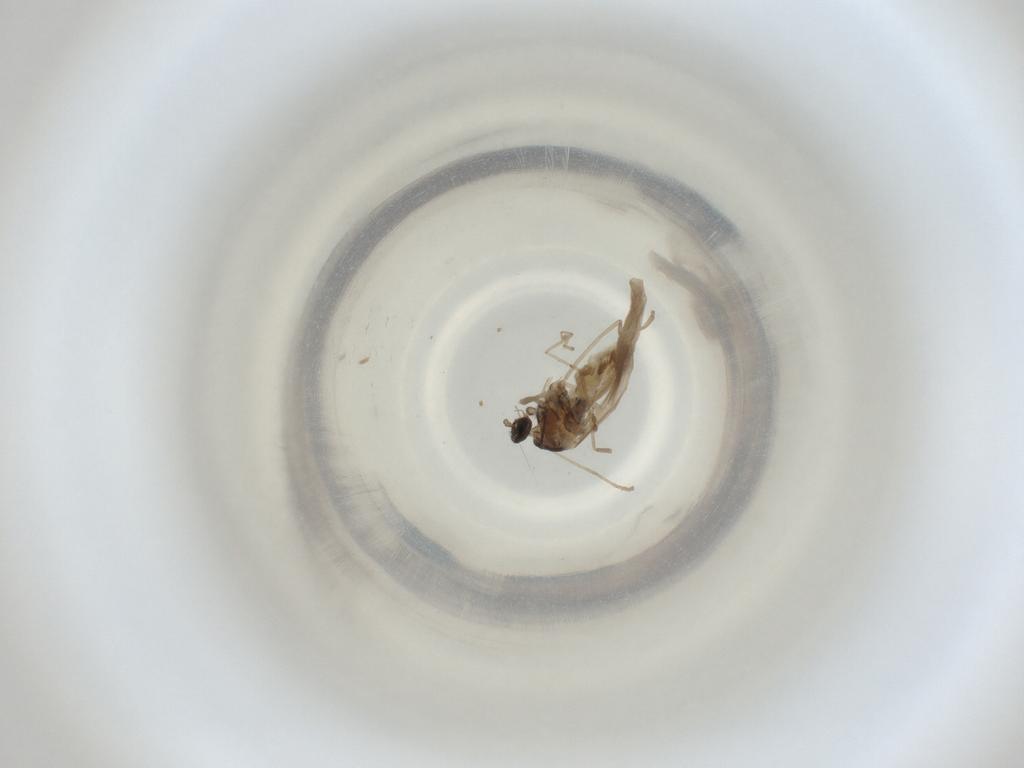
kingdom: Animalia
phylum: Arthropoda
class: Insecta
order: Diptera
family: Cecidomyiidae
